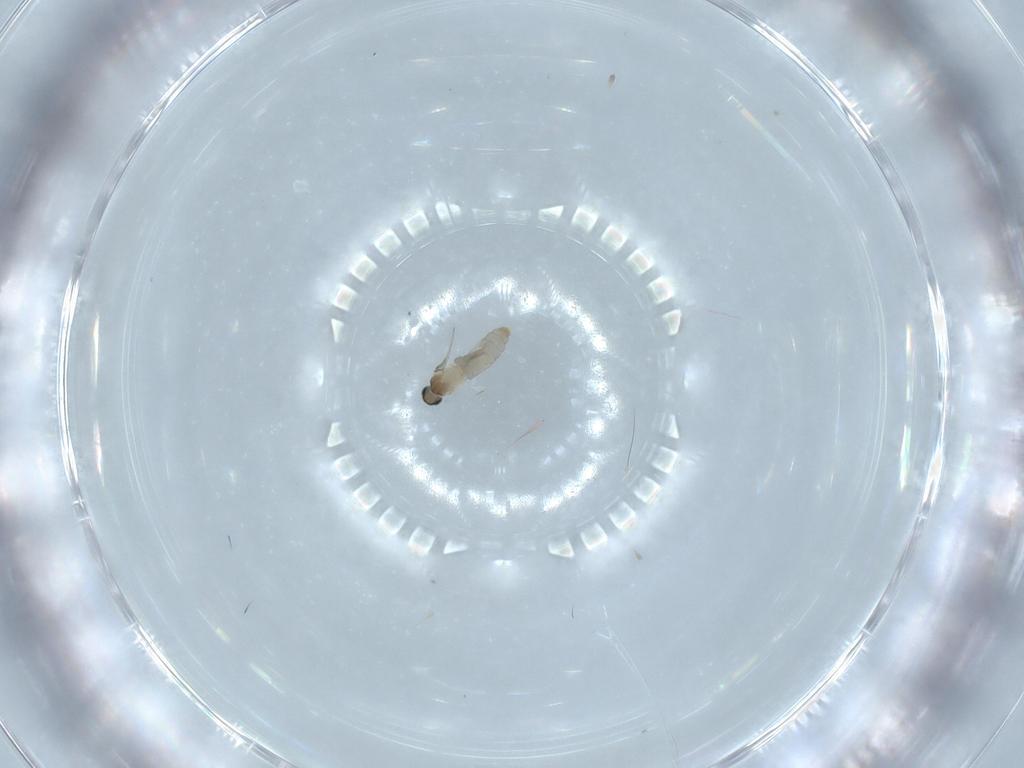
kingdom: Animalia
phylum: Arthropoda
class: Insecta
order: Diptera
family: Cecidomyiidae
